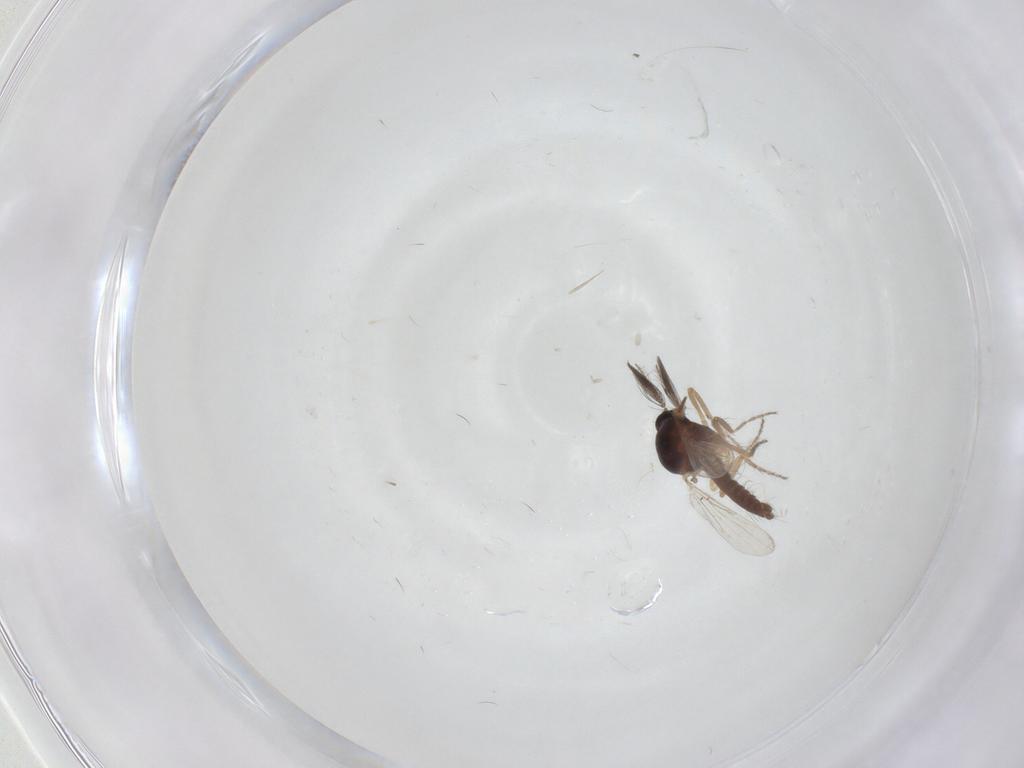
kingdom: Animalia
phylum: Arthropoda
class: Insecta
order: Diptera
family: Ceratopogonidae
